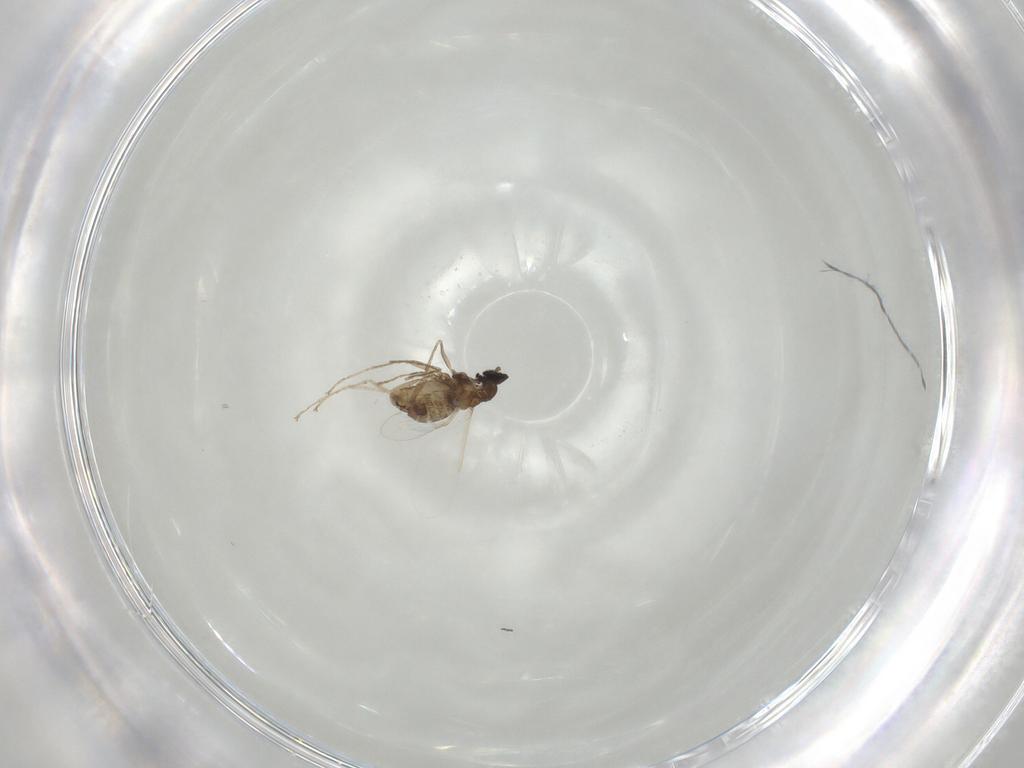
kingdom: Animalia
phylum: Arthropoda
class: Insecta
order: Diptera
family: Cecidomyiidae
